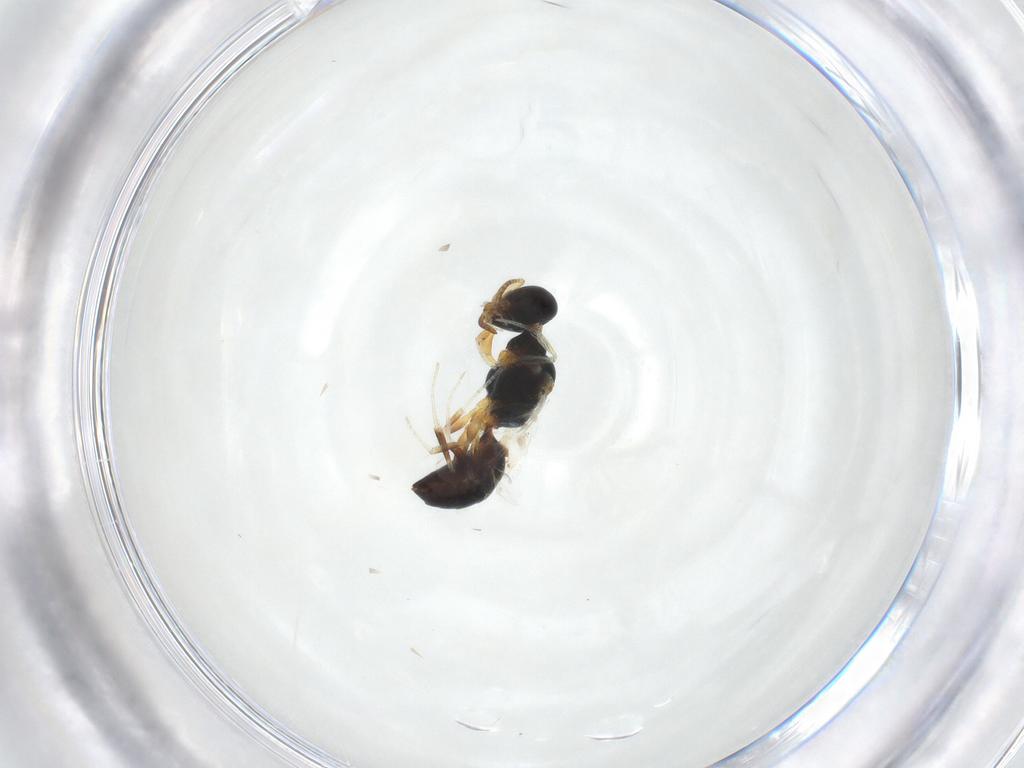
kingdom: Animalia
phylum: Arthropoda
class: Insecta
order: Hymenoptera
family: Pemphredonidae
